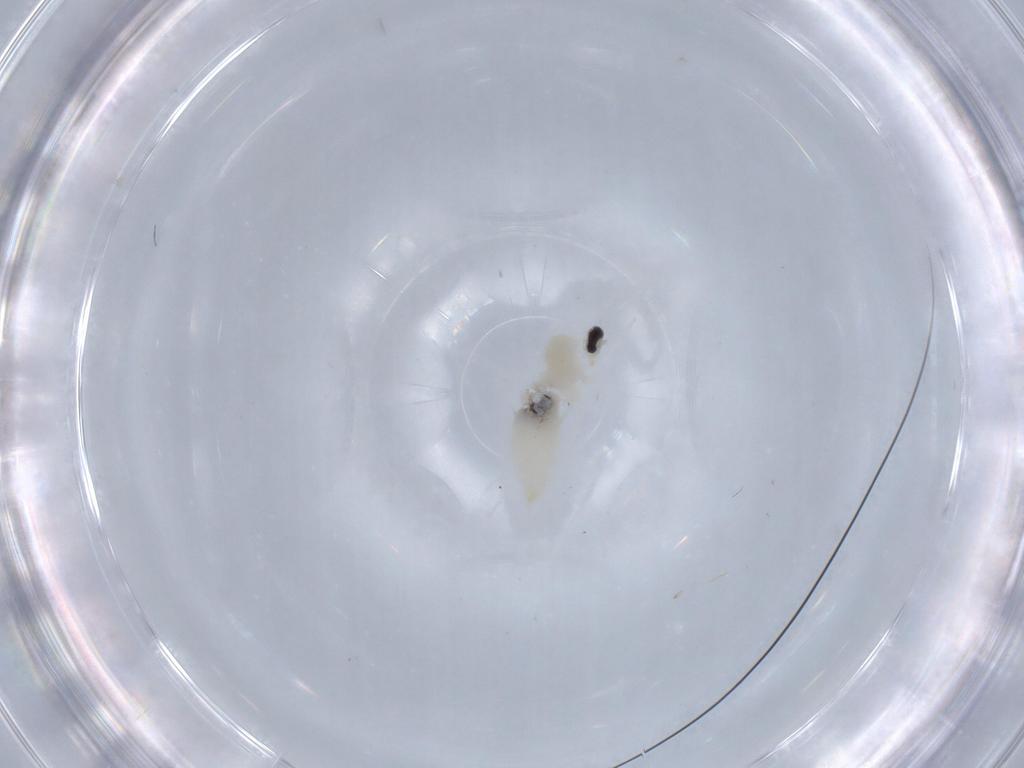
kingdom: Animalia
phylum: Arthropoda
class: Insecta
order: Diptera
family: Cecidomyiidae
